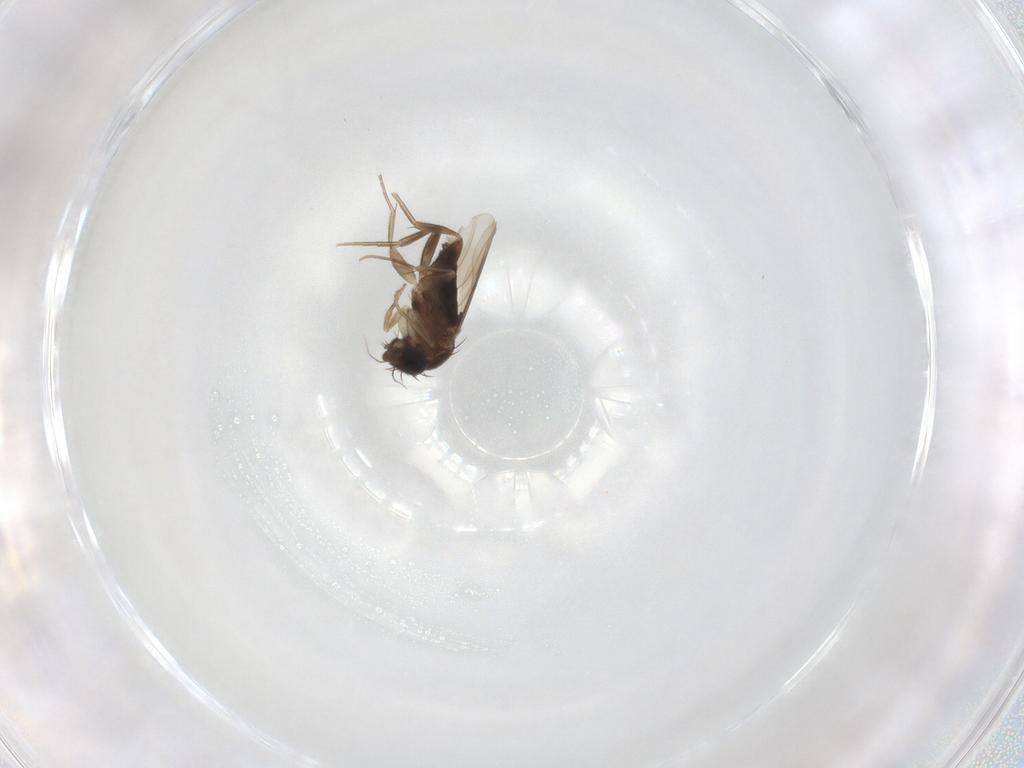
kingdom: Animalia
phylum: Arthropoda
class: Insecta
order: Diptera
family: Phoridae
